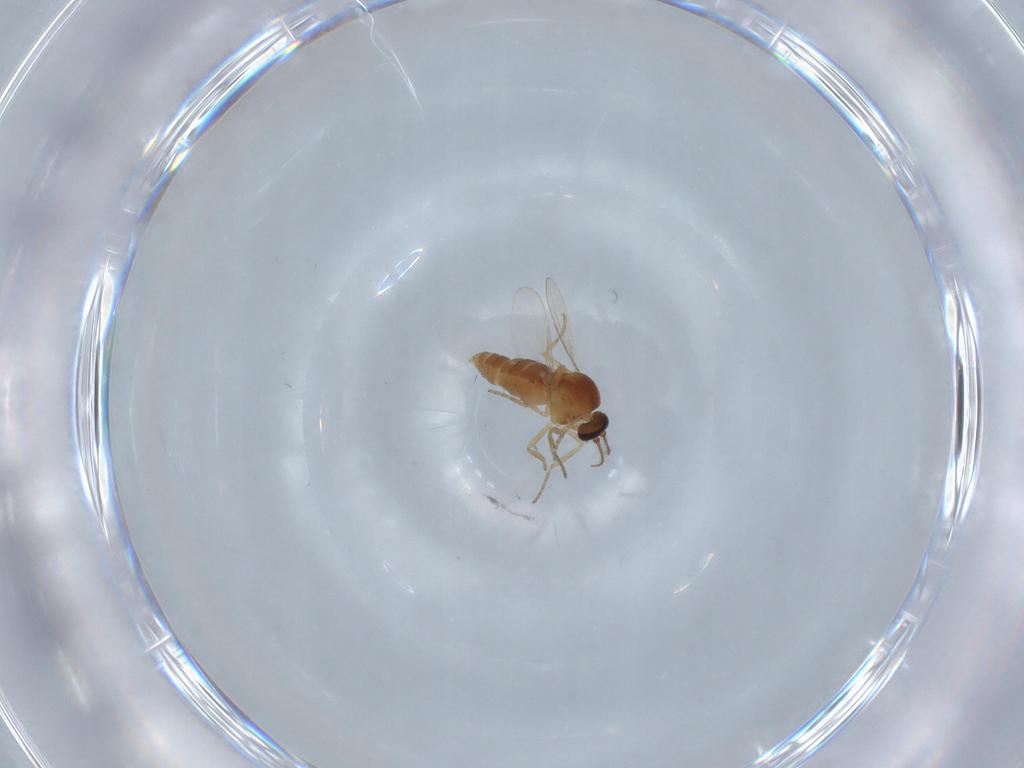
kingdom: Animalia
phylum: Arthropoda
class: Insecta
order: Diptera
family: Ceratopogonidae
